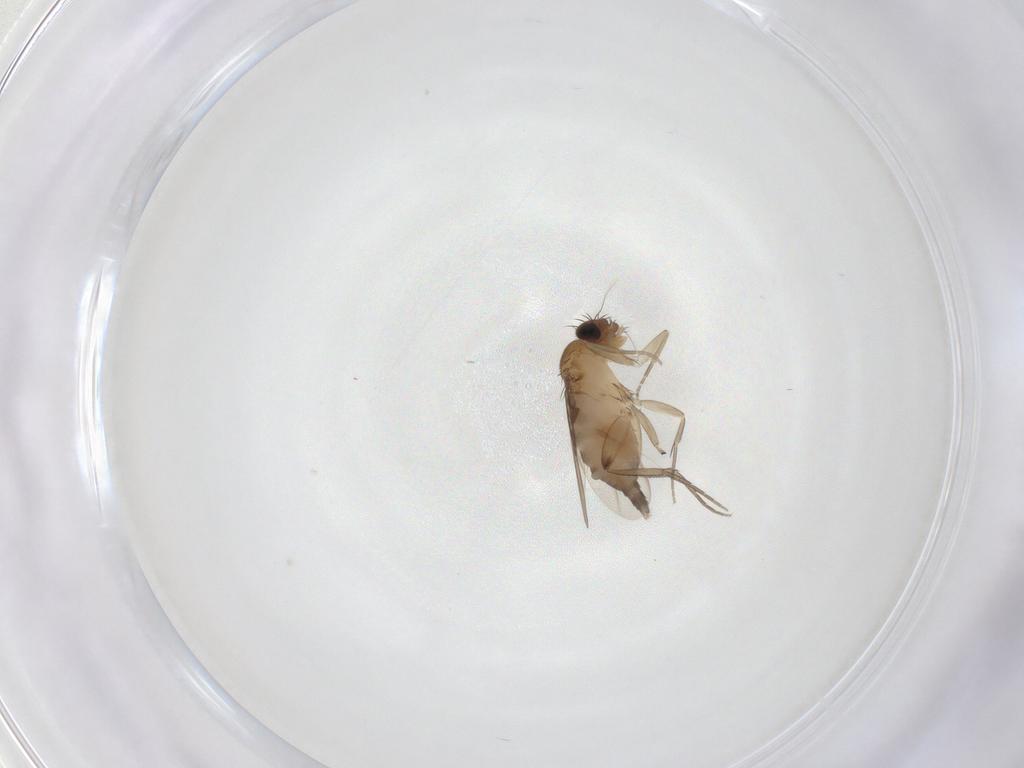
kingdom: Animalia
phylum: Arthropoda
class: Insecta
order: Diptera
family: Phoridae
